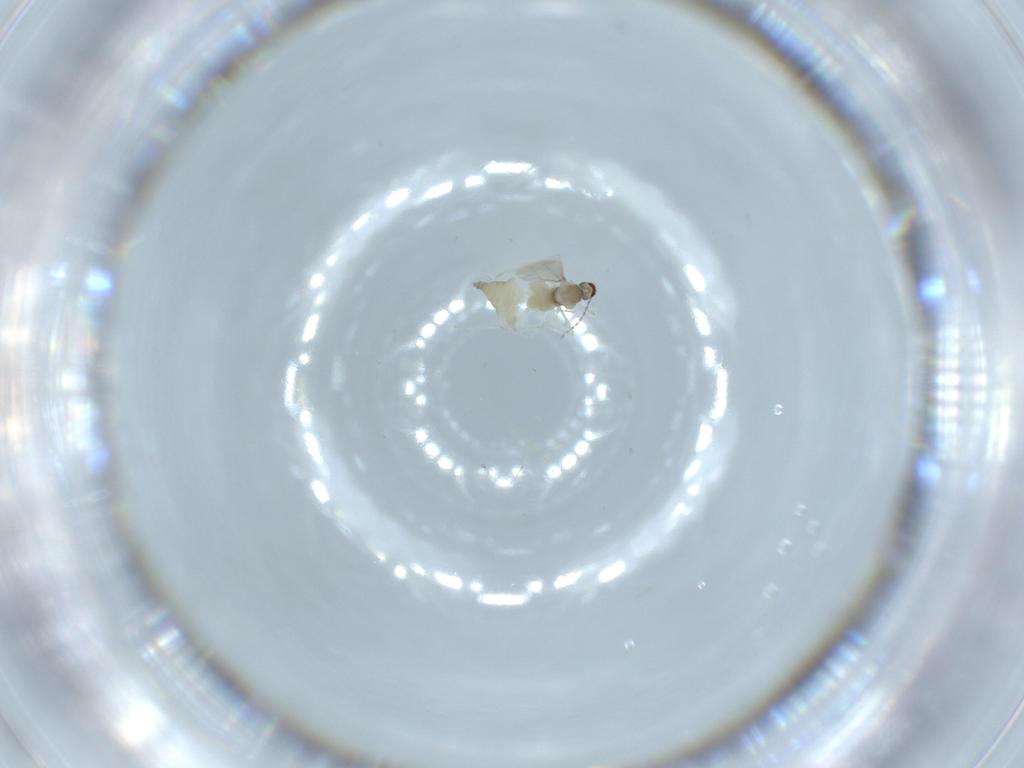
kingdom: Animalia
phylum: Arthropoda
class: Insecta
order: Diptera
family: Cecidomyiidae
